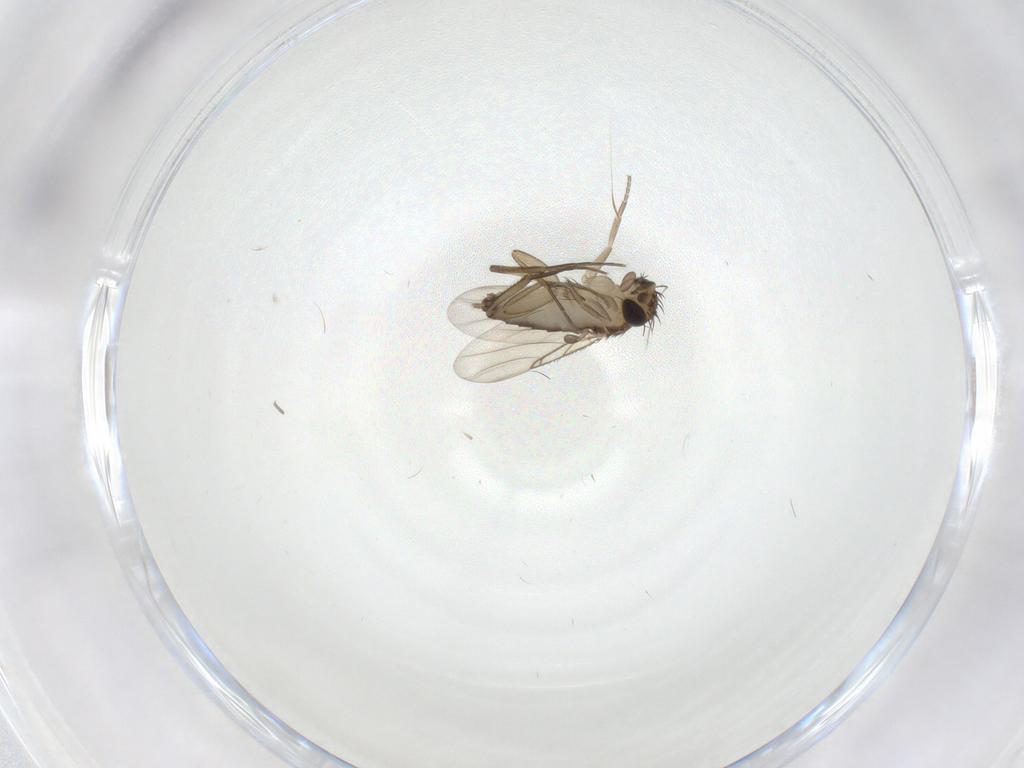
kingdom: Animalia
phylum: Arthropoda
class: Insecta
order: Diptera
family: Phoridae
